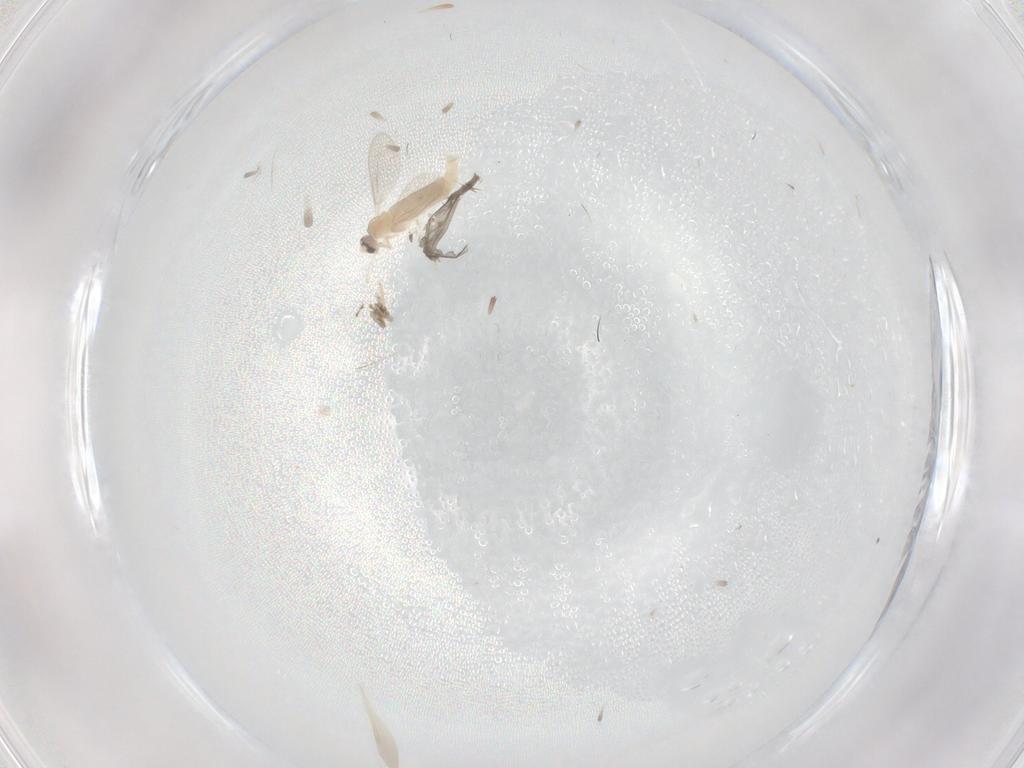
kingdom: Animalia
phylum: Arthropoda
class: Insecta
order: Diptera
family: Cecidomyiidae
